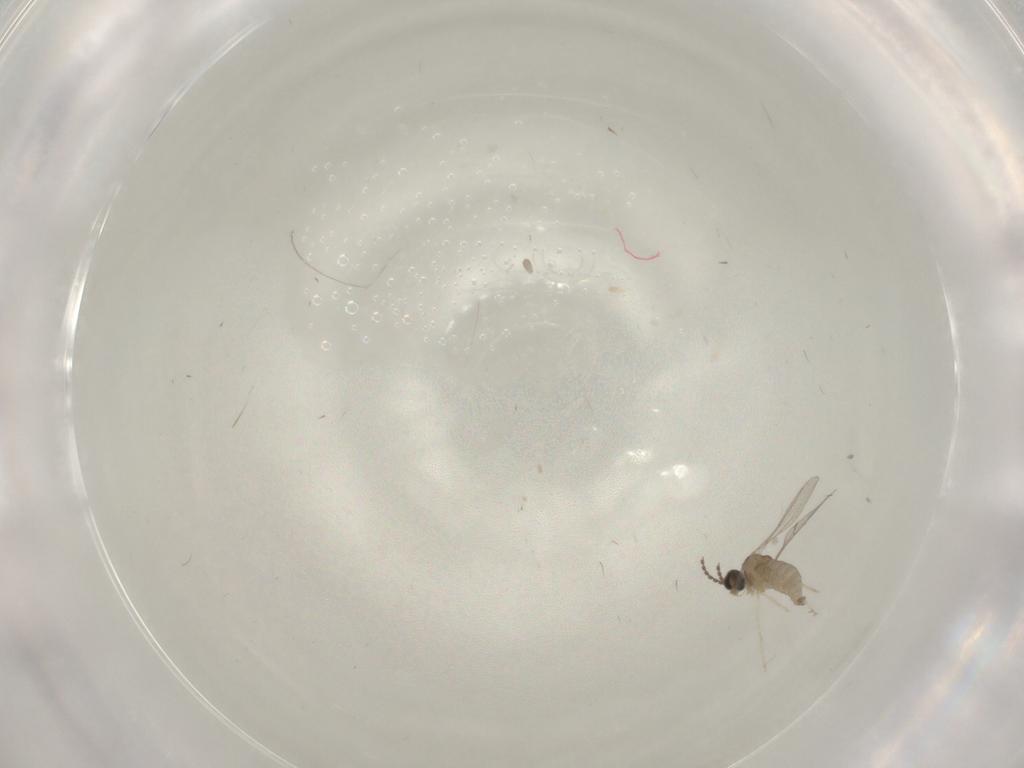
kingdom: Animalia
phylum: Arthropoda
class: Insecta
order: Diptera
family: Cecidomyiidae
